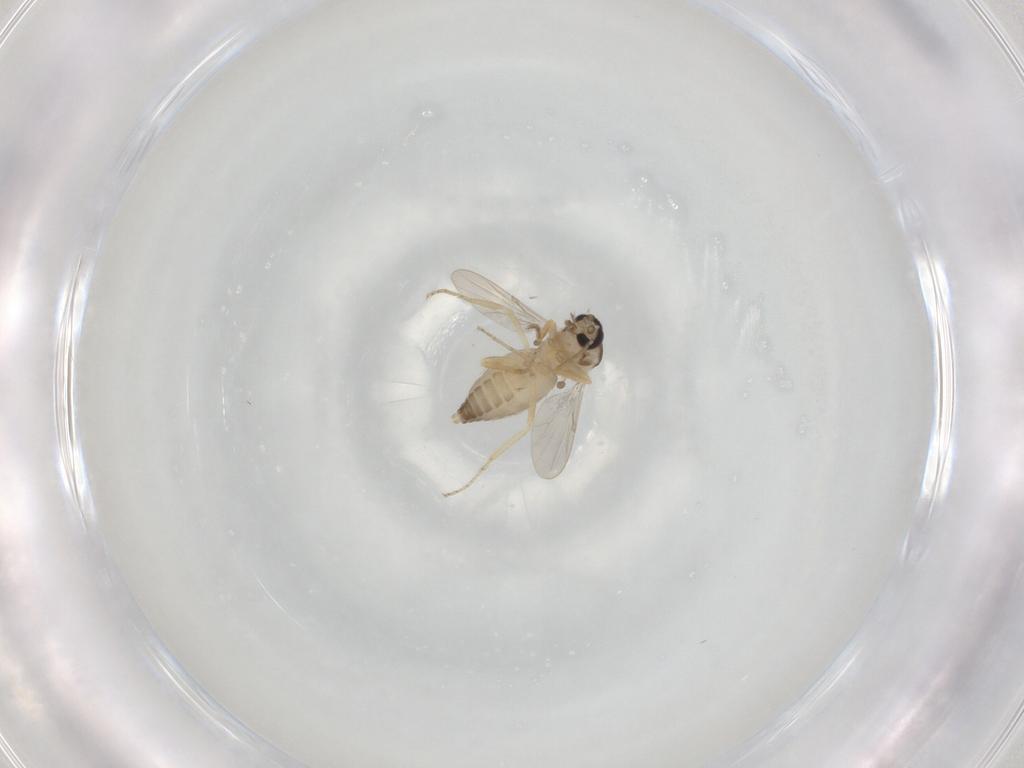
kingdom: Animalia
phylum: Arthropoda
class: Insecta
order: Diptera
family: Ceratopogonidae
